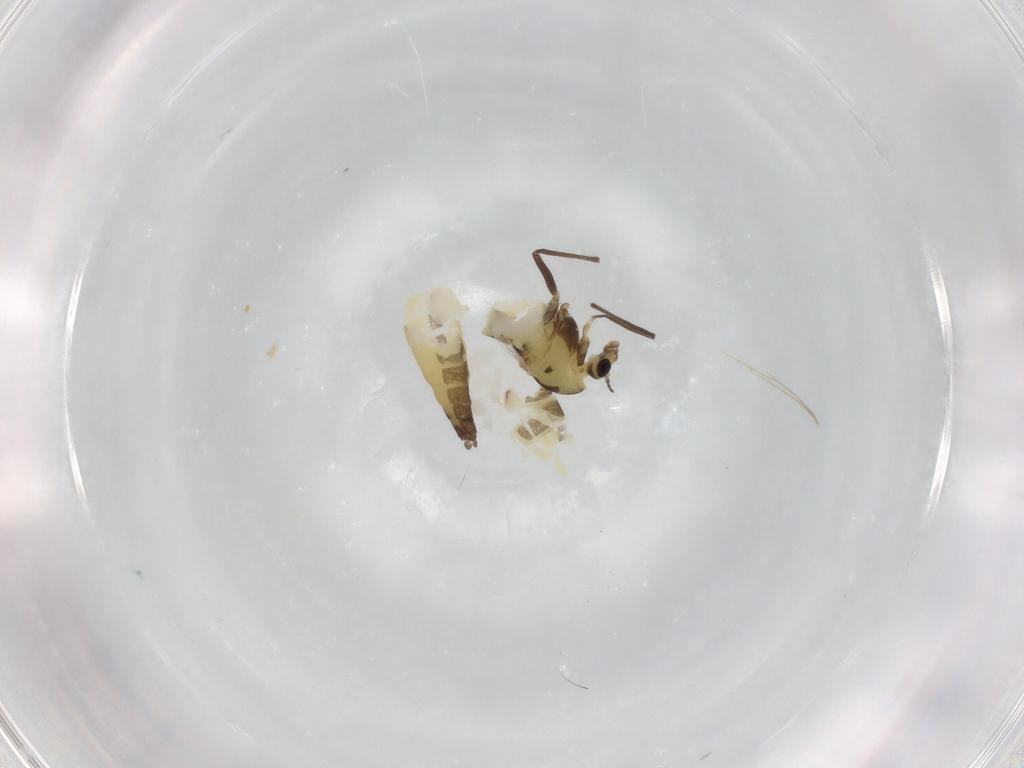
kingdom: Animalia
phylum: Arthropoda
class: Insecta
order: Diptera
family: Chironomidae
